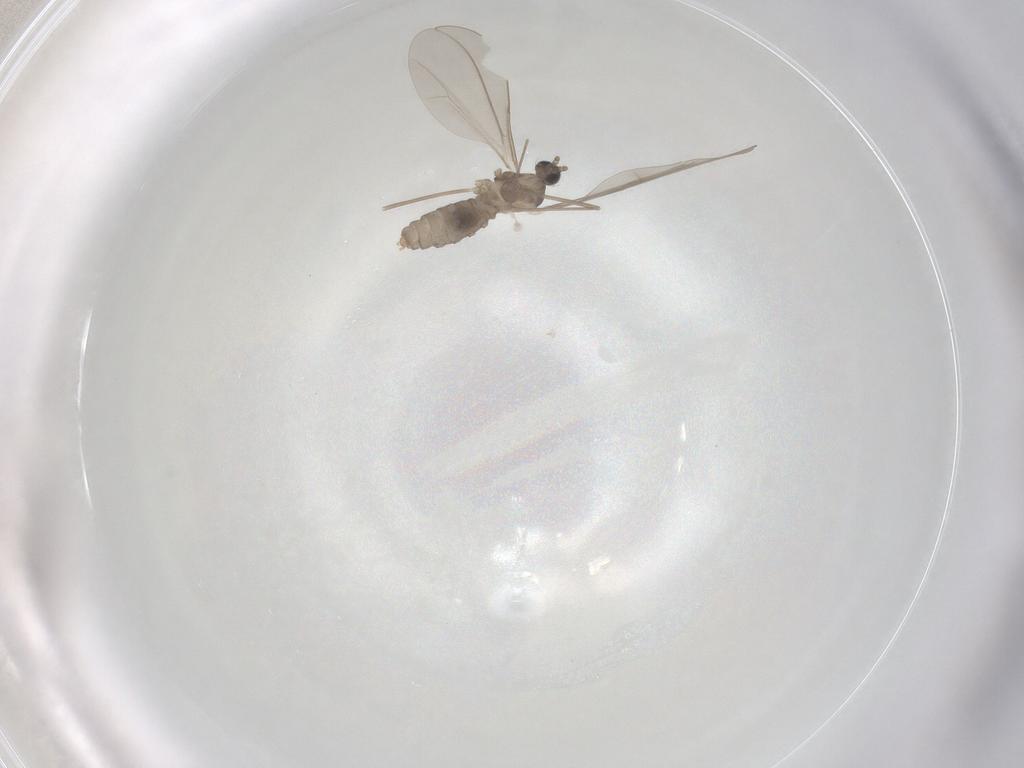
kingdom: Animalia
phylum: Arthropoda
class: Insecta
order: Diptera
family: Cecidomyiidae
